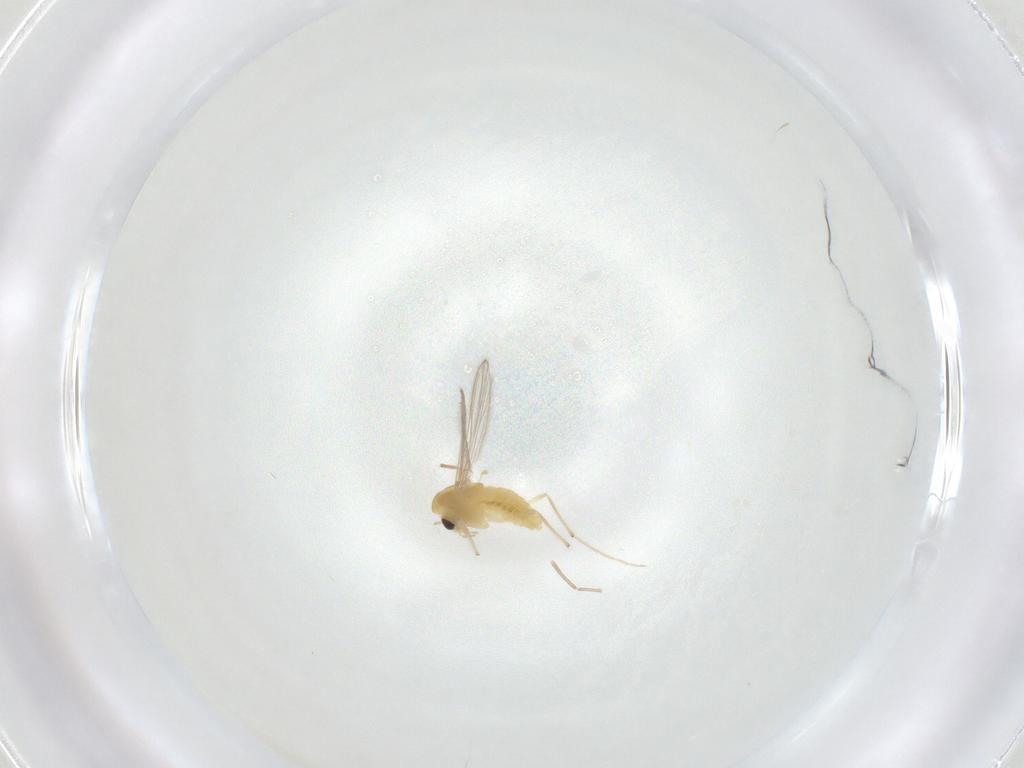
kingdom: Animalia
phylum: Arthropoda
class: Insecta
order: Diptera
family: Chironomidae
